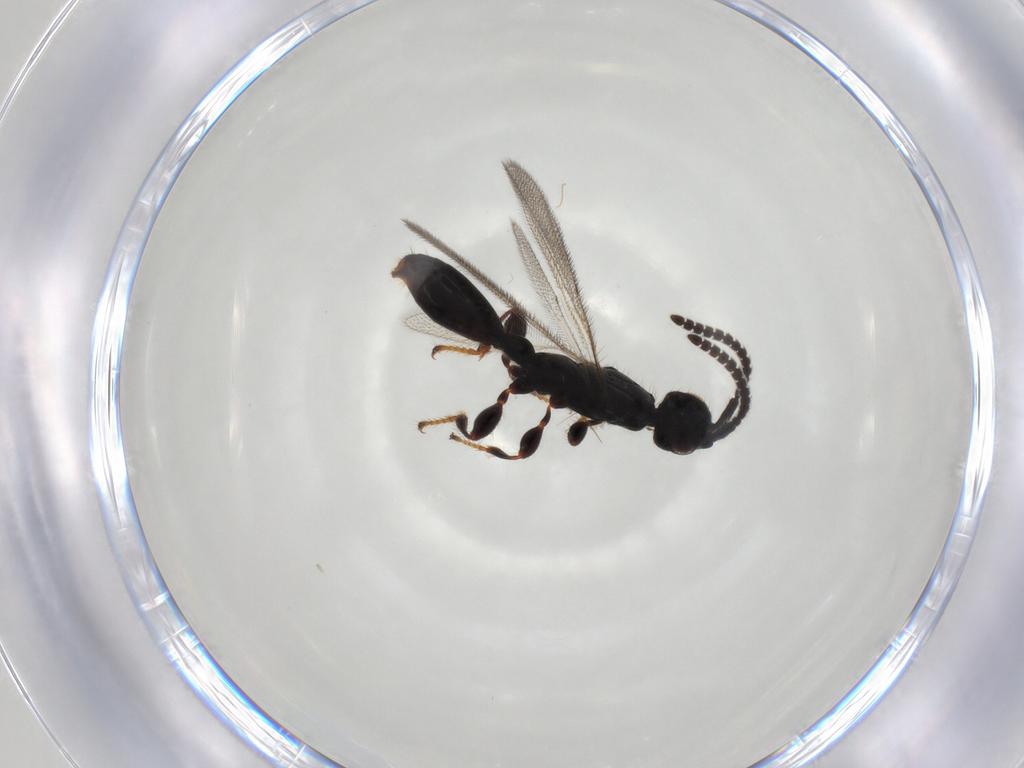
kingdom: Animalia
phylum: Arthropoda
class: Insecta
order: Hymenoptera
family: Diapriidae
